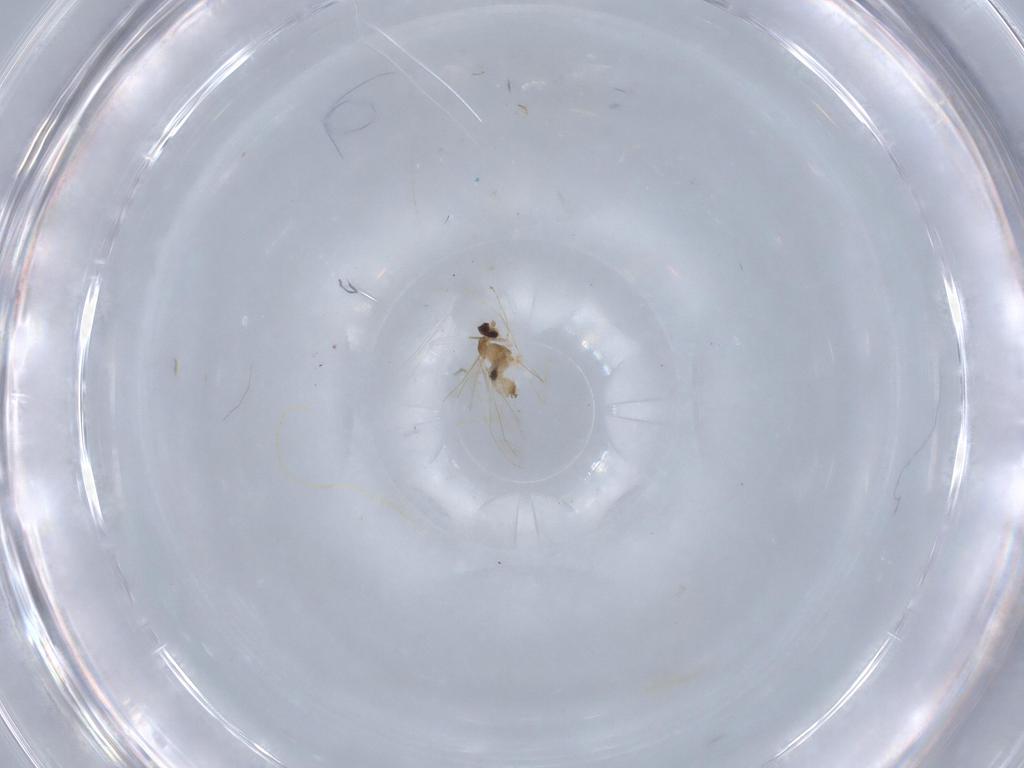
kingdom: Animalia
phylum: Arthropoda
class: Insecta
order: Diptera
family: Cecidomyiidae
